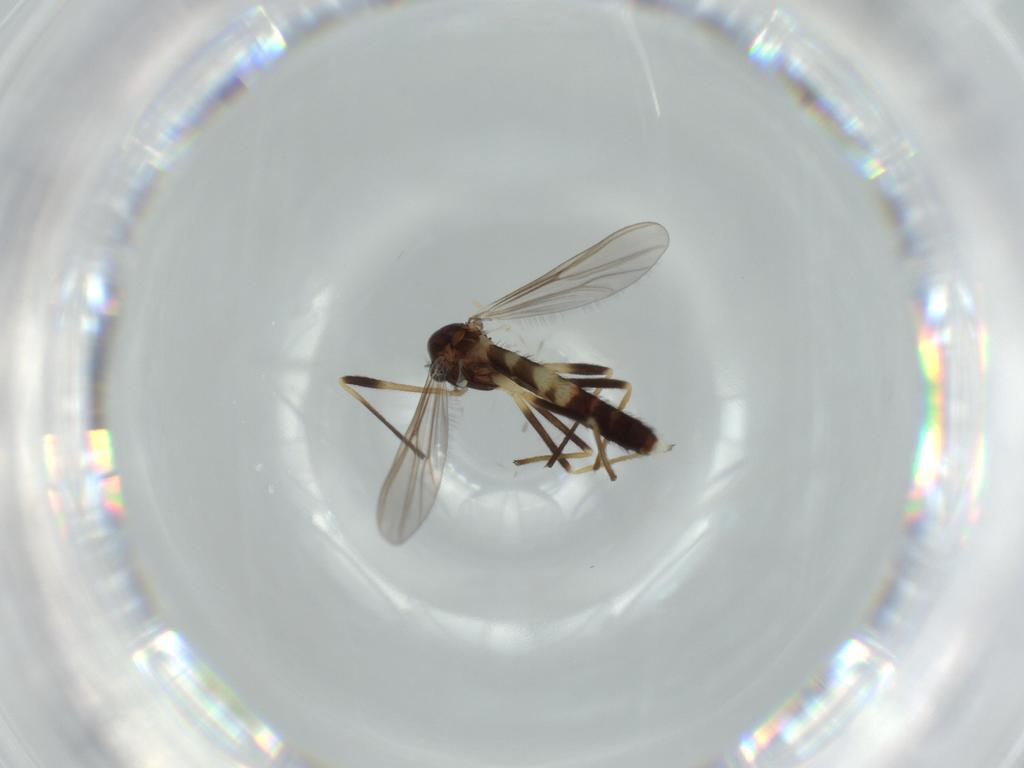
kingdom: Animalia
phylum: Arthropoda
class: Insecta
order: Diptera
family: Chironomidae
